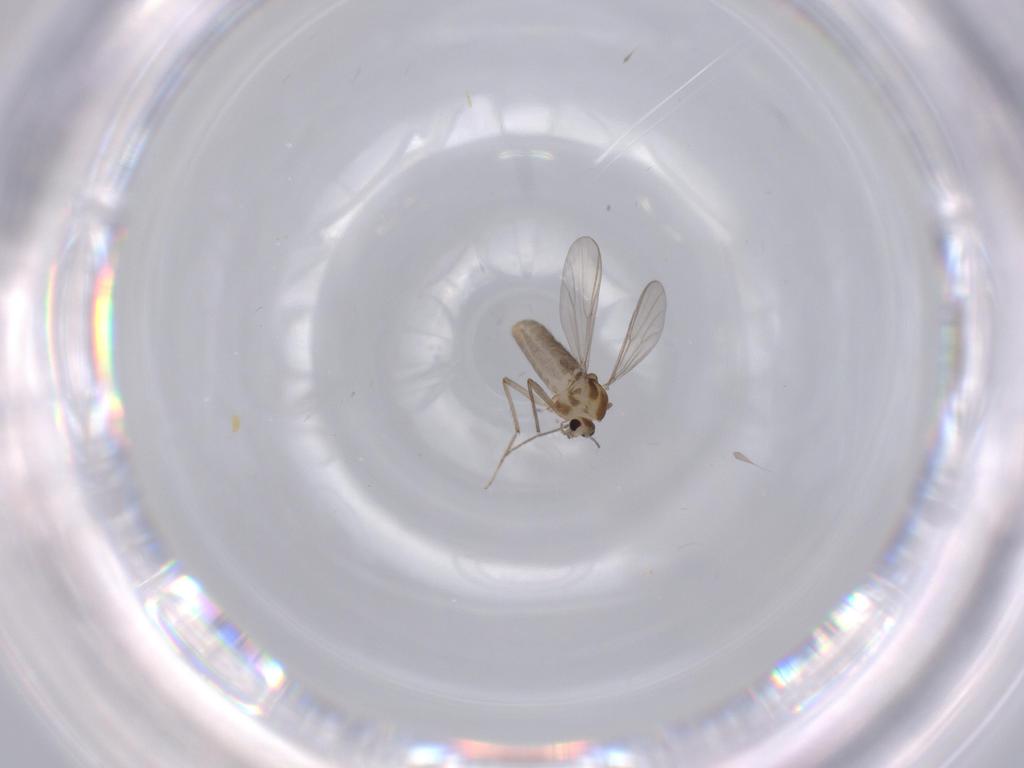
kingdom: Animalia
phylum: Arthropoda
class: Insecta
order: Diptera
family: Chironomidae
